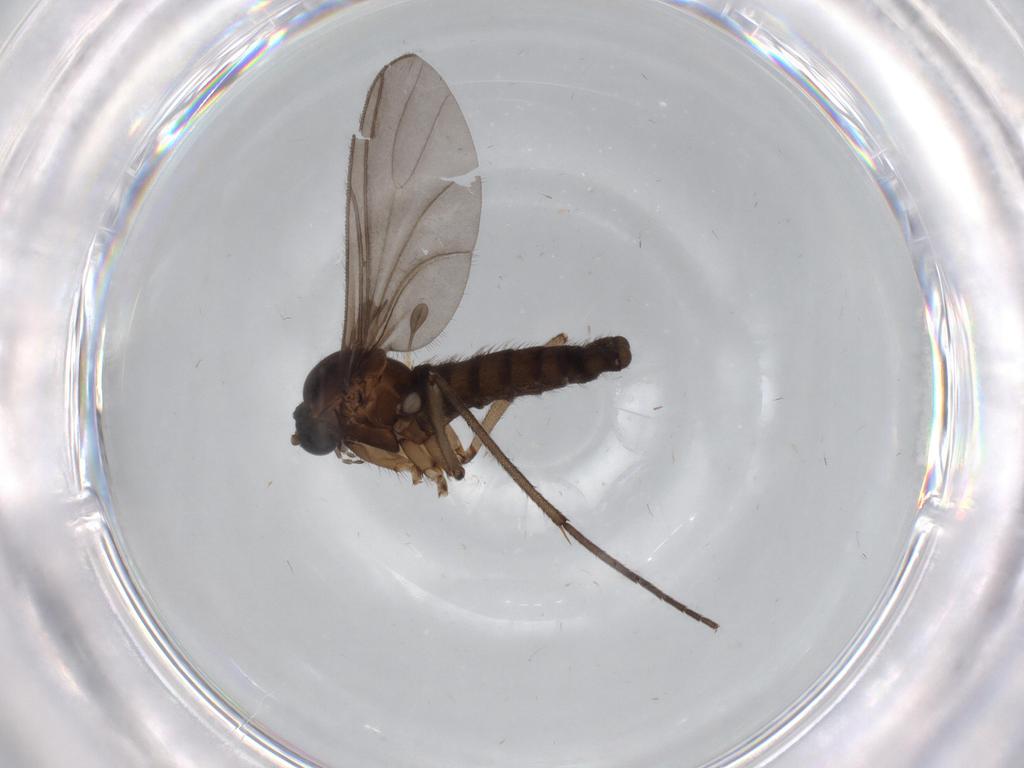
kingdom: Animalia
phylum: Arthropoda
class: Insecta
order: Diptera
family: Sciaridae
